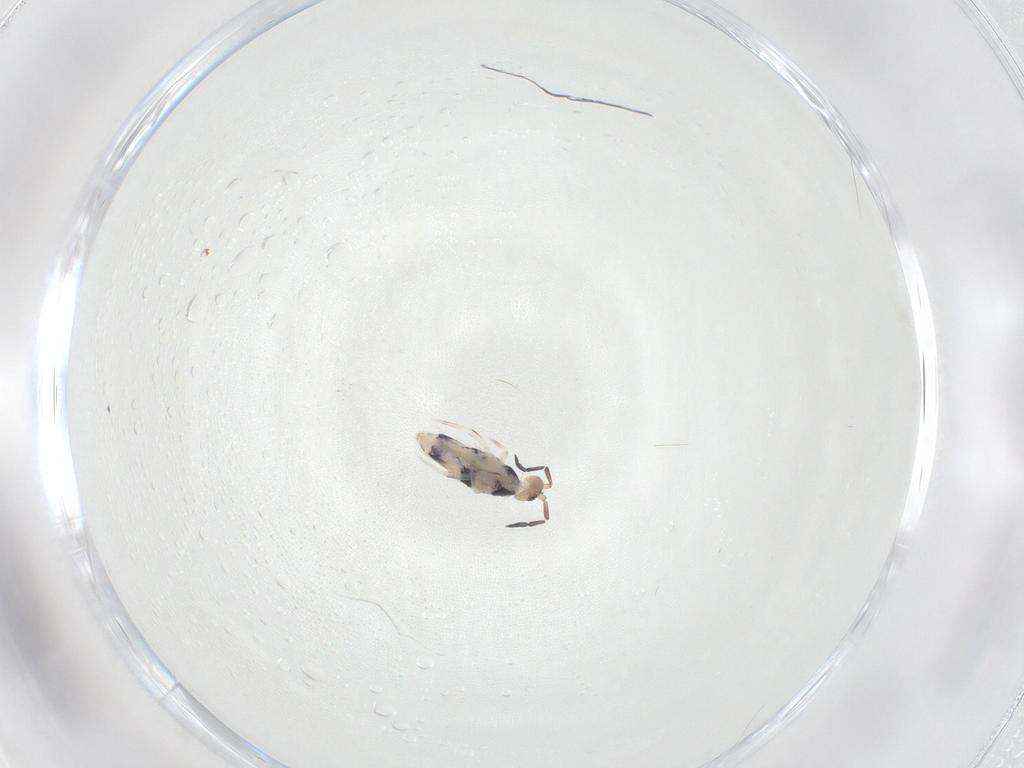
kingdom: Animalia
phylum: Arthropoda
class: Collembola
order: Entomobryomorpha
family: Entomobryidae
